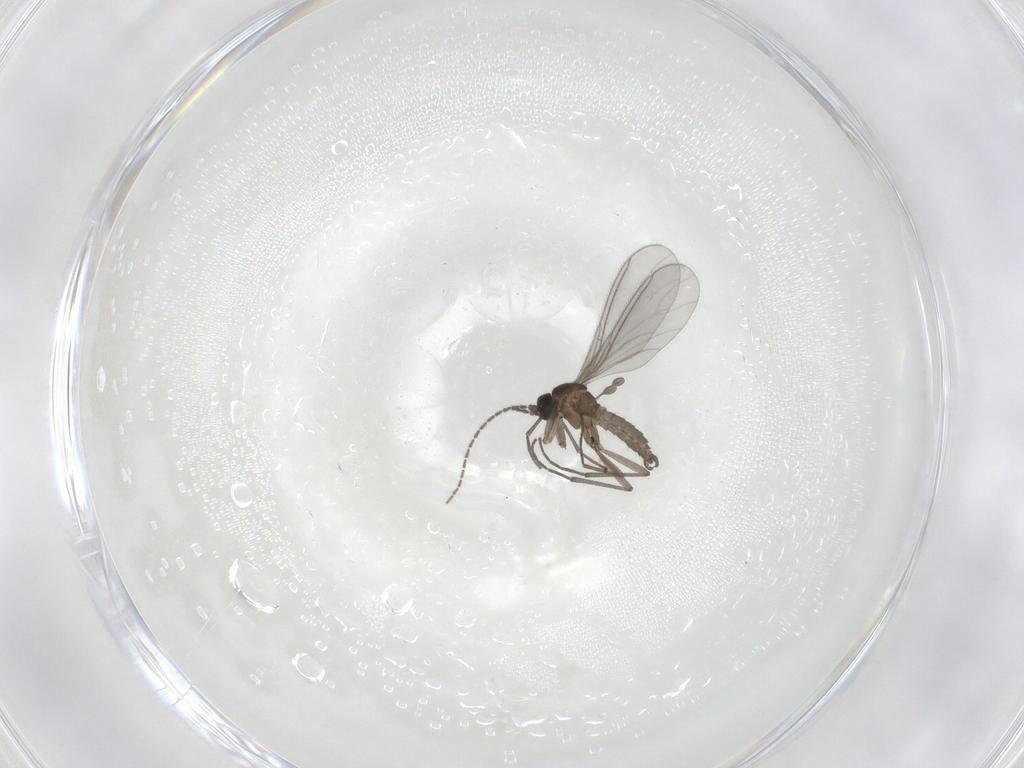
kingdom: Animalia
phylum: Arthropoda
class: Insecta
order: Diptera
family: Sciaridae
